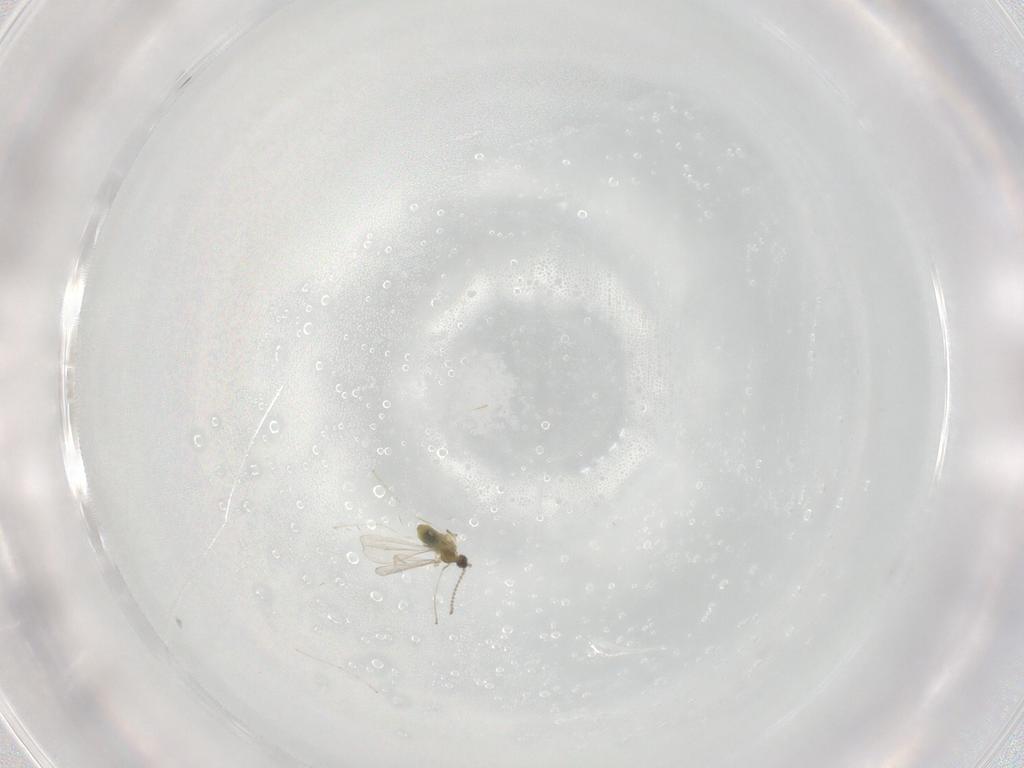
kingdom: Animalia
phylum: Arthropoda
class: Insecta
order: Diptera
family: Cecidomyiidae
